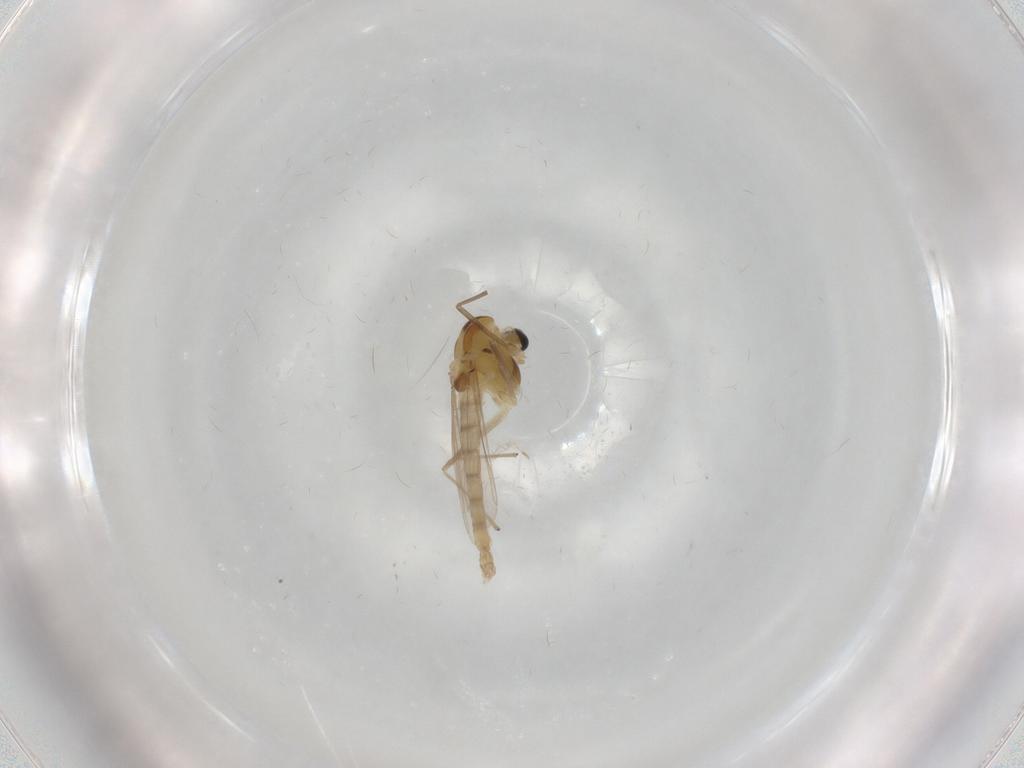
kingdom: Animalia
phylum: Arthropoda
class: Insecta
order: Diptera
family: Chironomidae
